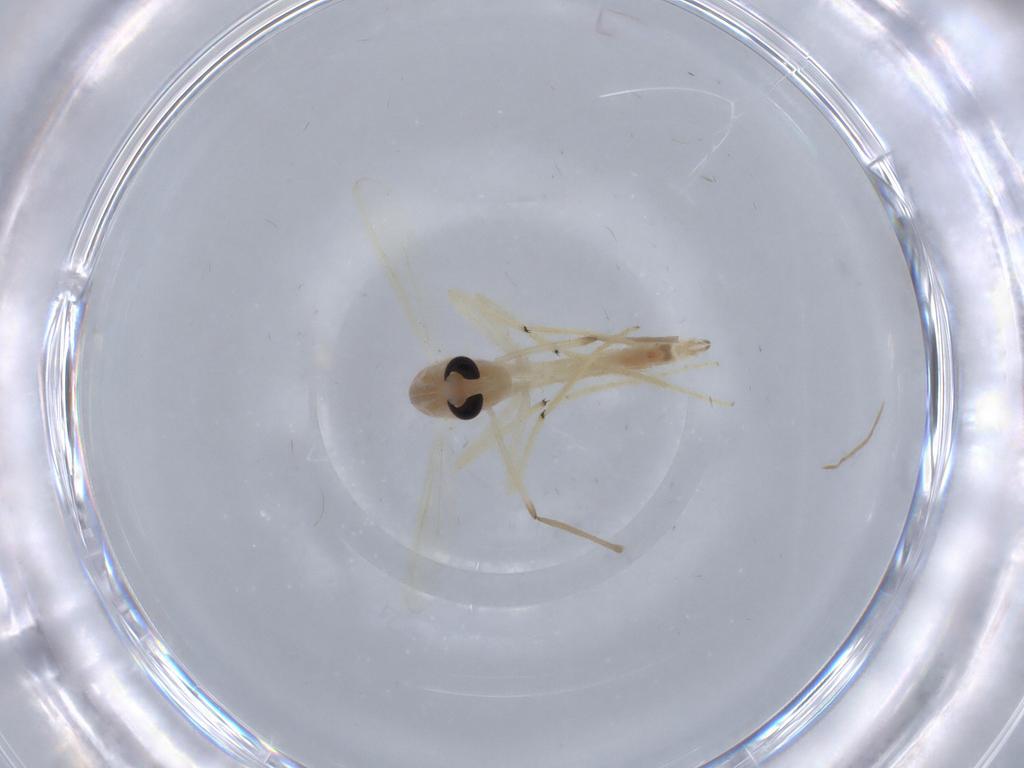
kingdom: Animalia
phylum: Arthropoda
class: Insecta
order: Diptera
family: Chironomidae
